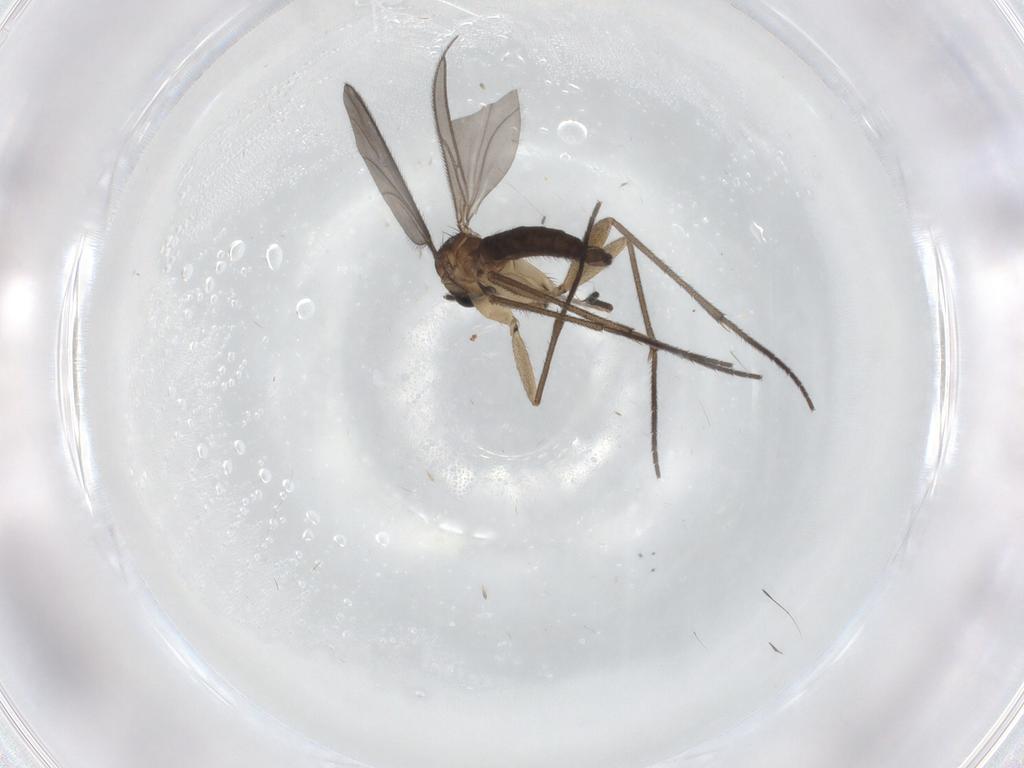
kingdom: Animalia
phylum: Arthropoda
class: Insecta
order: Diptera
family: Sciaridae
